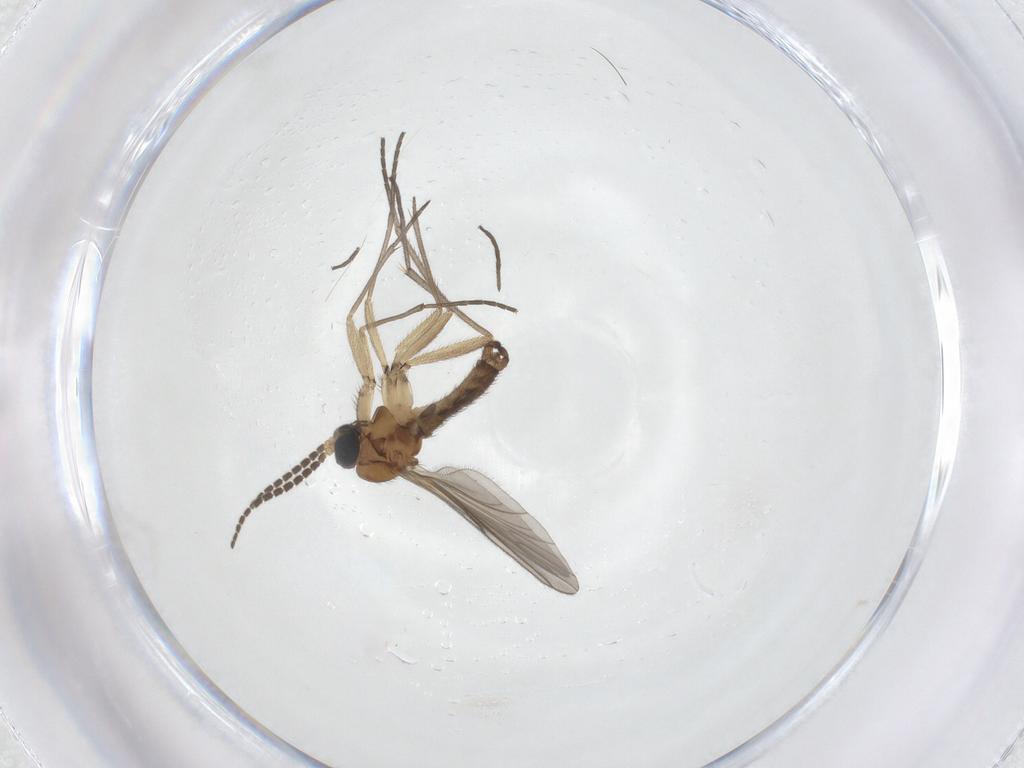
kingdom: Animalia
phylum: Arthropoda
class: Insecta
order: Diptera
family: Sciaridae
